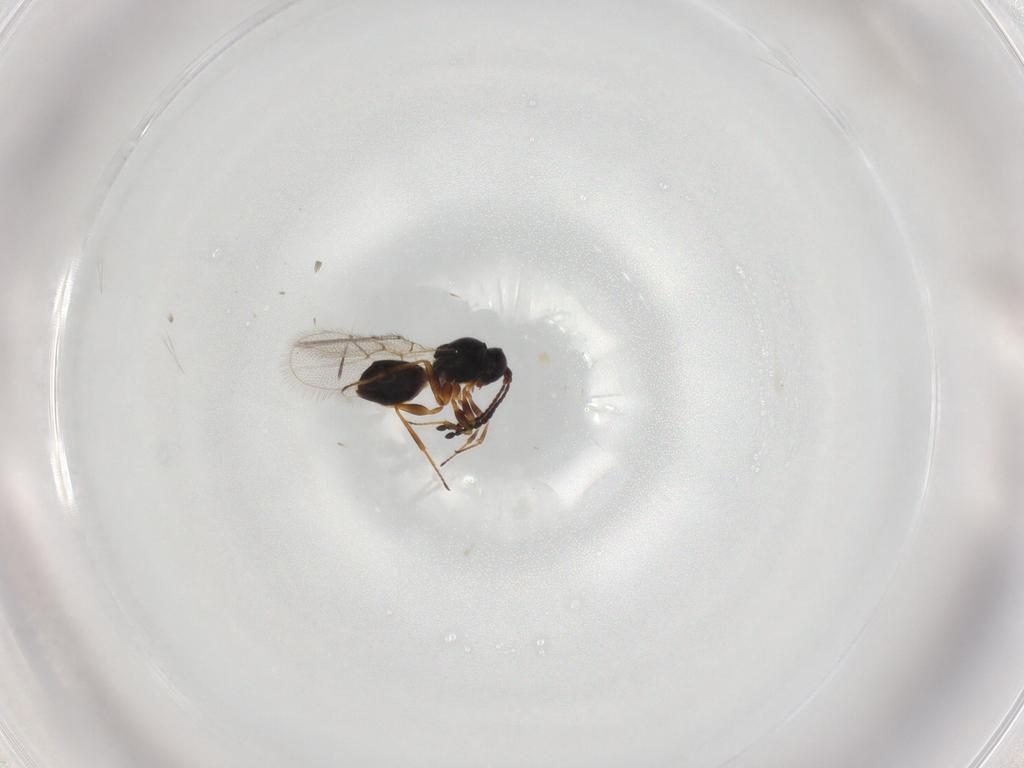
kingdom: Animalia
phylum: Arthropoda
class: Insecta
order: Hymenoptera
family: Figitidae
